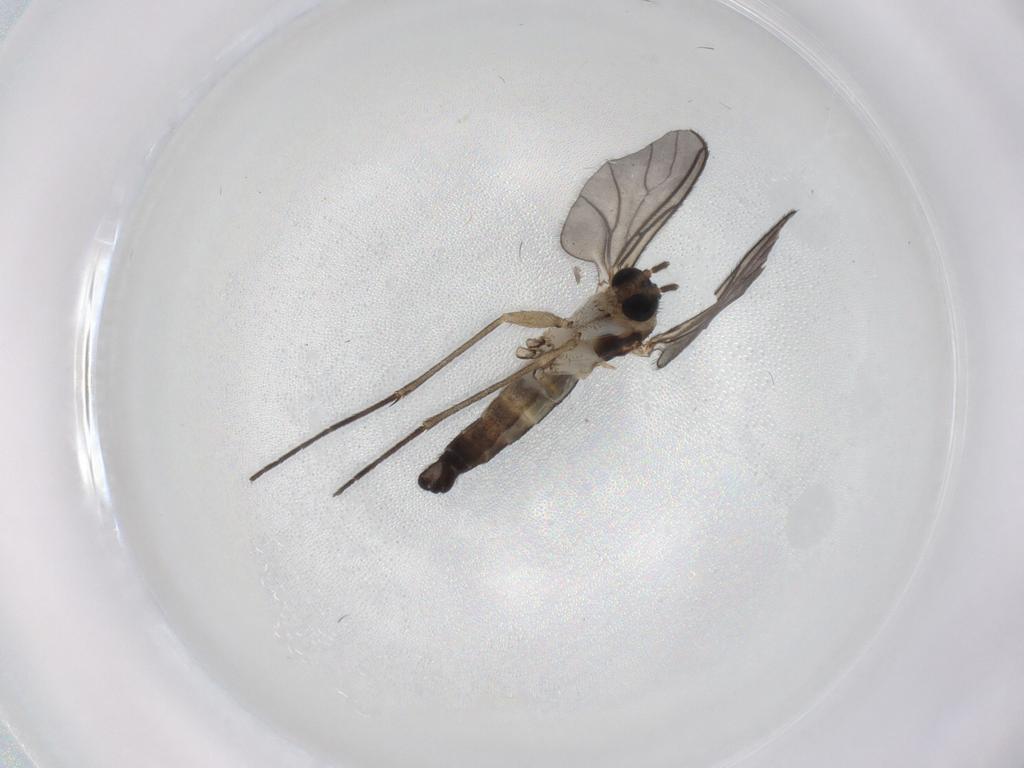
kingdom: Animalia
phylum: Arthropoda
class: Insecta
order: Diptera
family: Sciaridae
